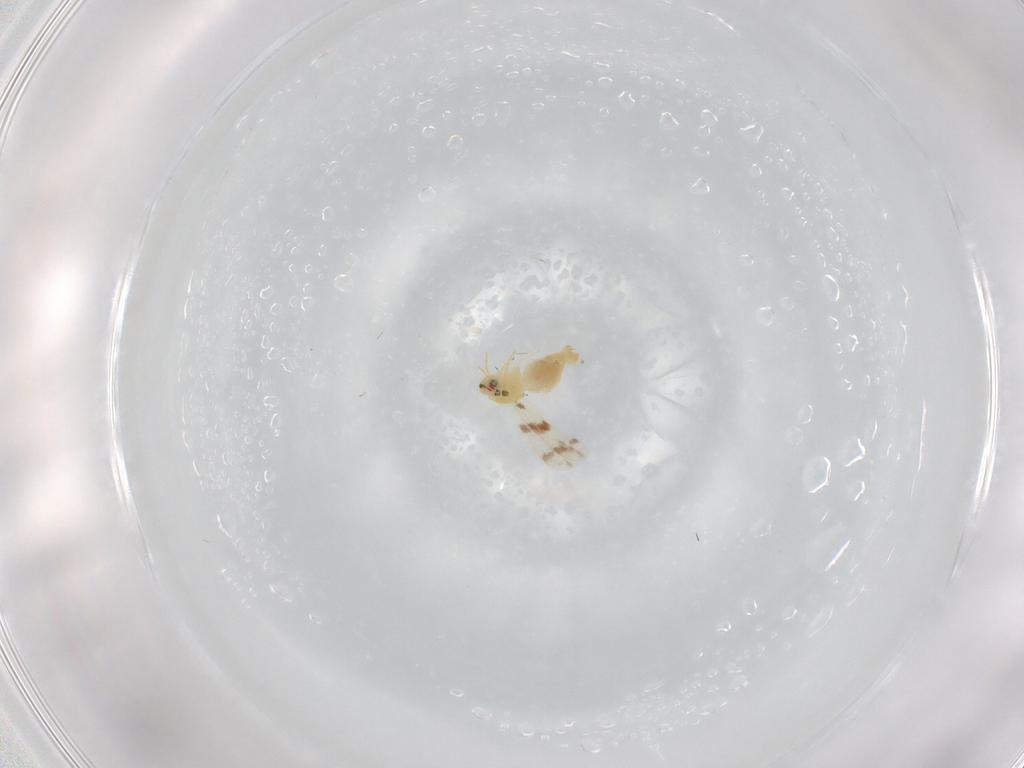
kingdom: Animalia
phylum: Arthropoda
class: Insecta
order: Hemiptera
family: Aleyrodidae
